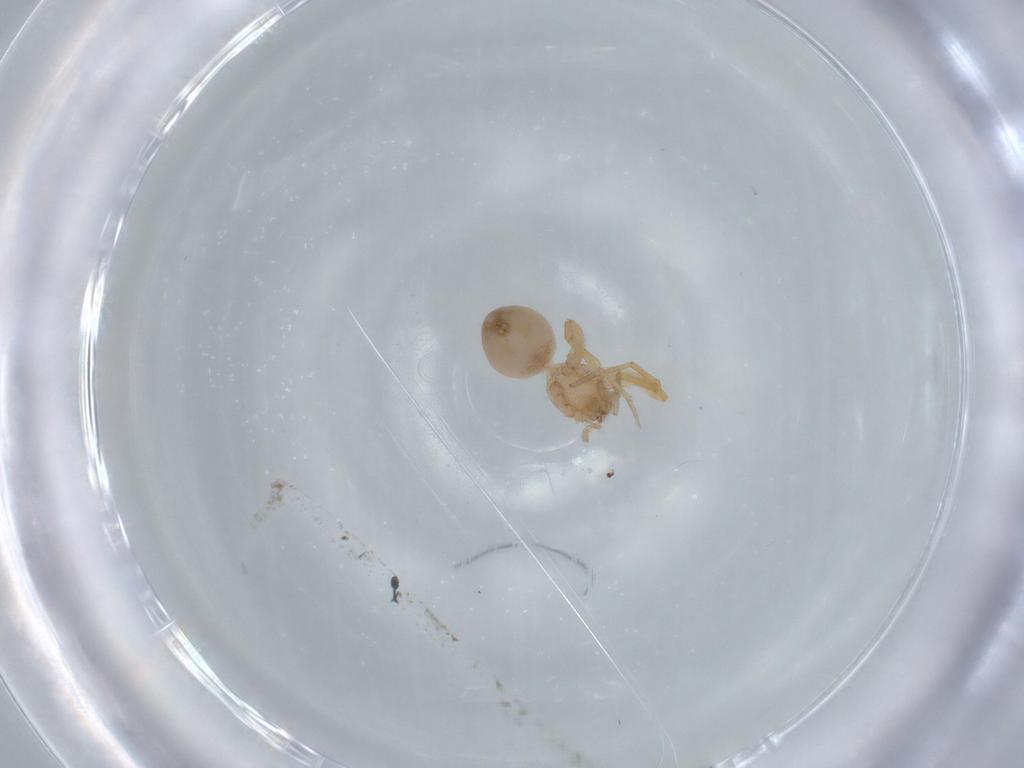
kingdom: Animalia
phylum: Arthropoda
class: Arachnida
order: Araneae
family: Oonopidae
